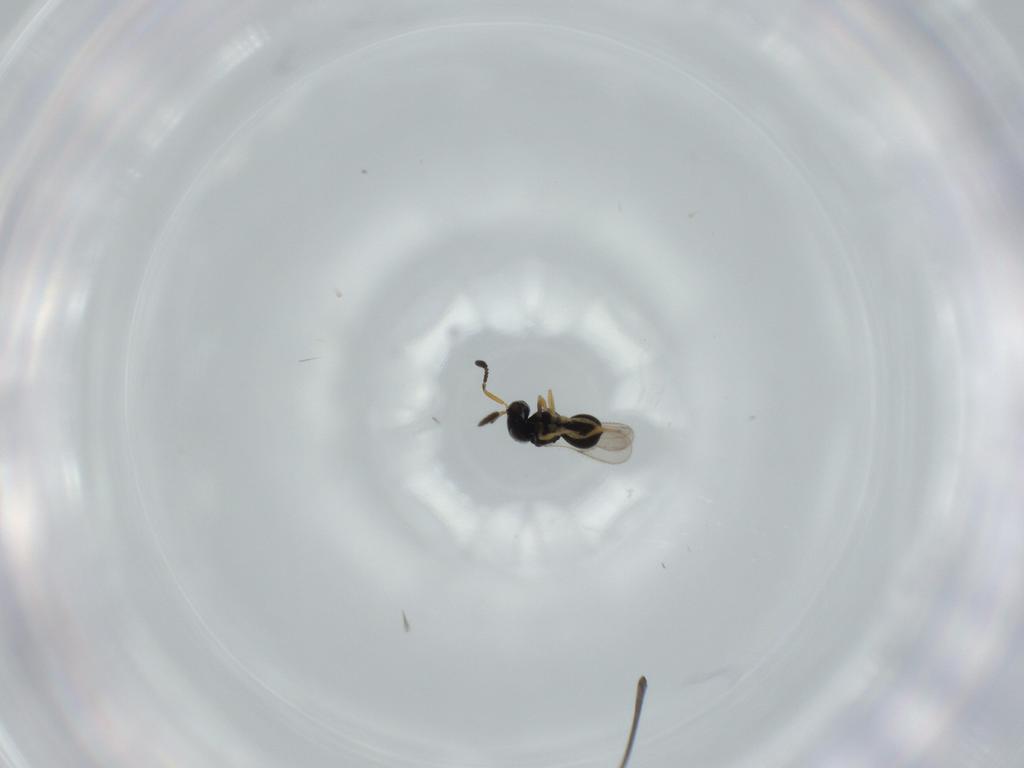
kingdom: Animalia
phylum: Arthropoda
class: Insecta
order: Hymenoptera
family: Scelionidae
